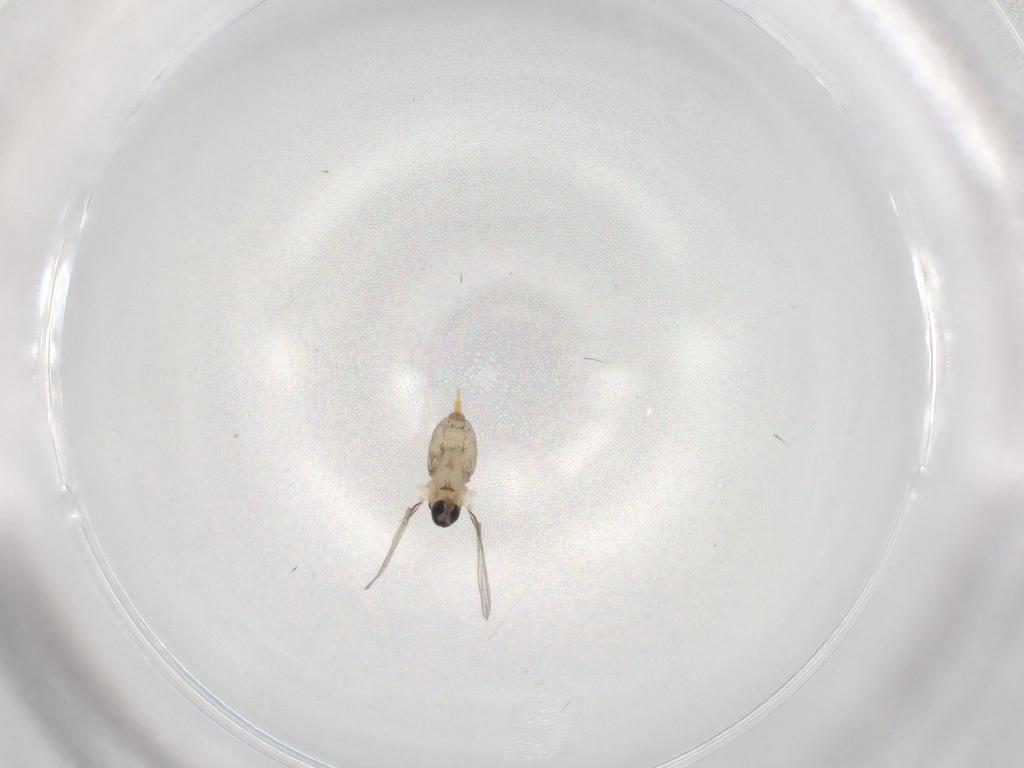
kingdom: Animalia
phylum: Arthropoda
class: Insecta
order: Diptera
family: Cecidomyiidae
